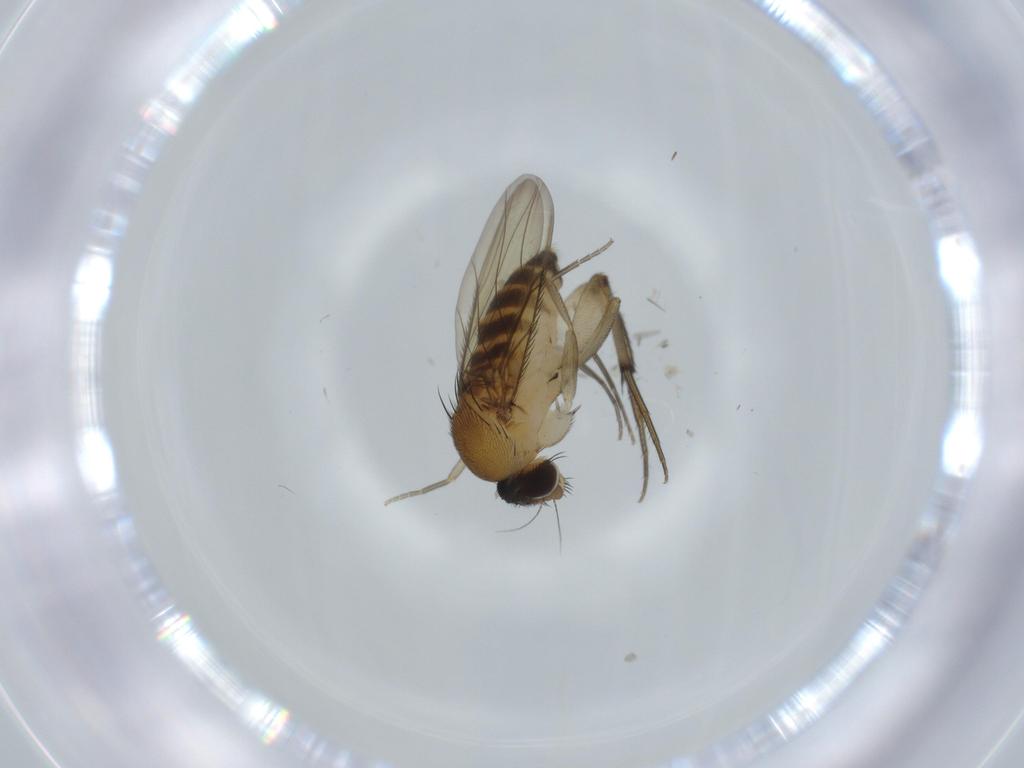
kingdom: Animalia
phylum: Arthropoda
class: Insecta
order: Diptera
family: Phoridae
